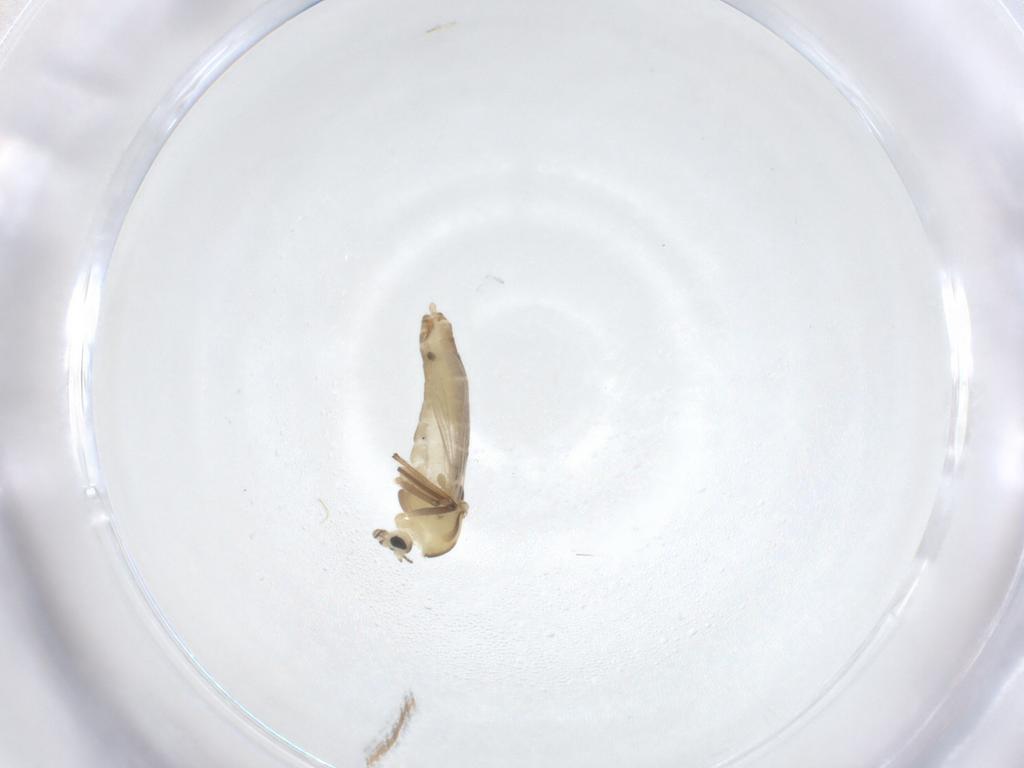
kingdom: Animalia
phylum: Arthropoda
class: Insecta
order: Diptera
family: Chironomidae
